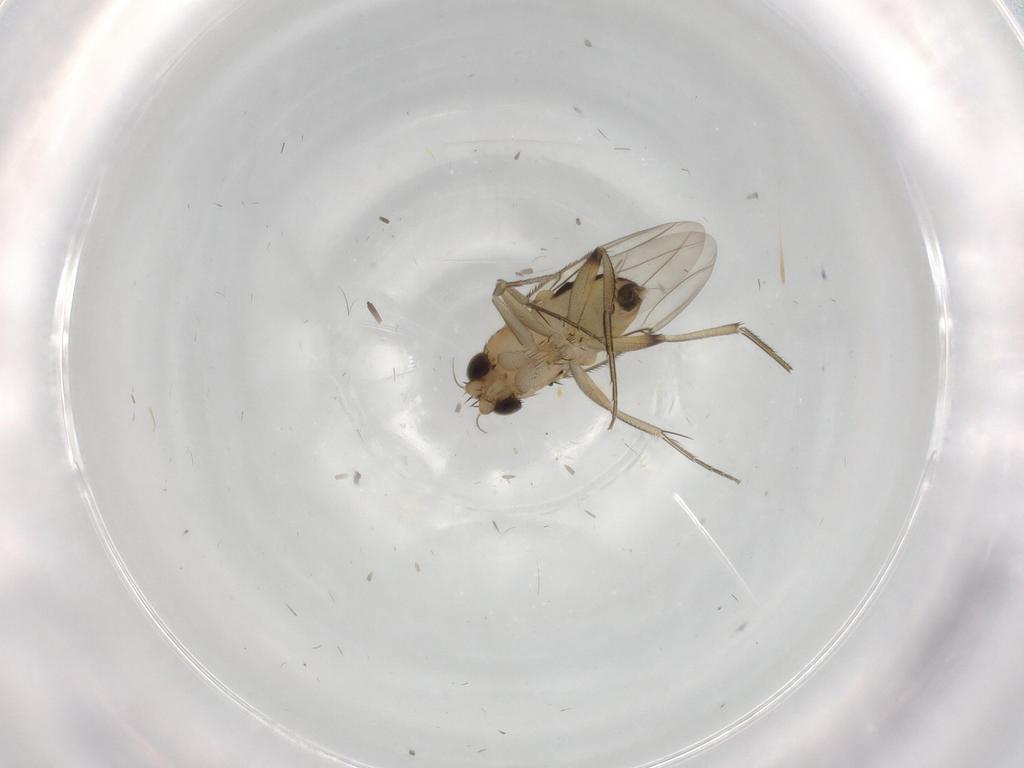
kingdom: Animalia
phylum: Arthropoda
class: Insecta
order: Diptera
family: Phoridae
